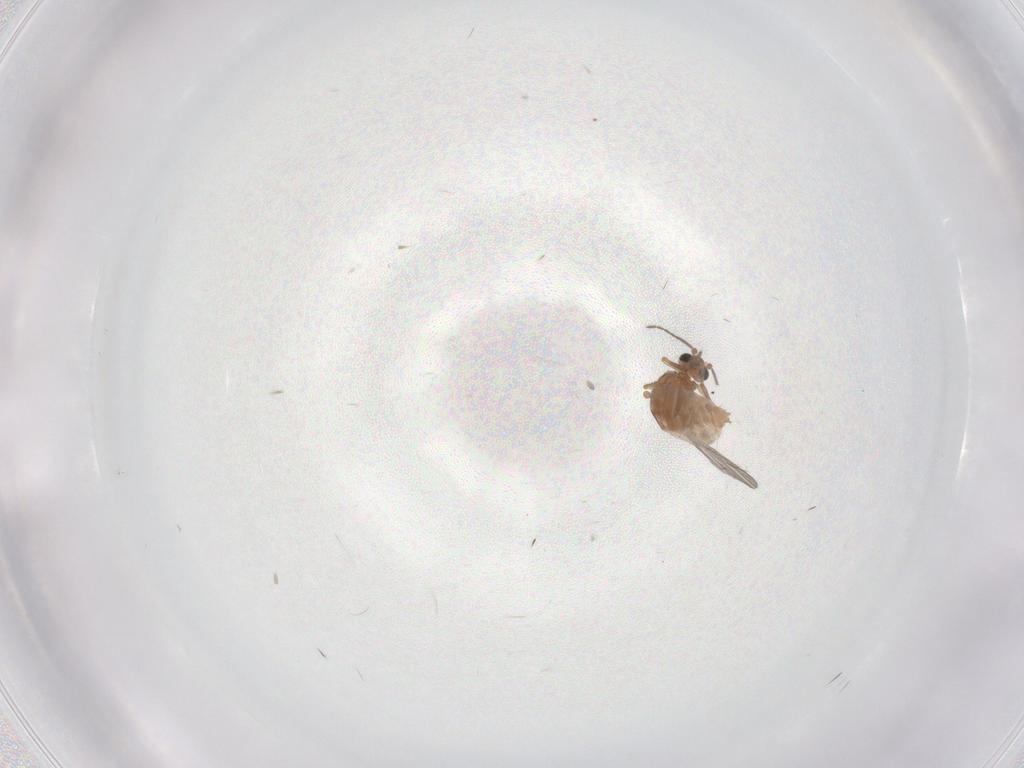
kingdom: Animalia
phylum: Arthropoda
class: Insecta
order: Diptera
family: Ceratopogonidae
